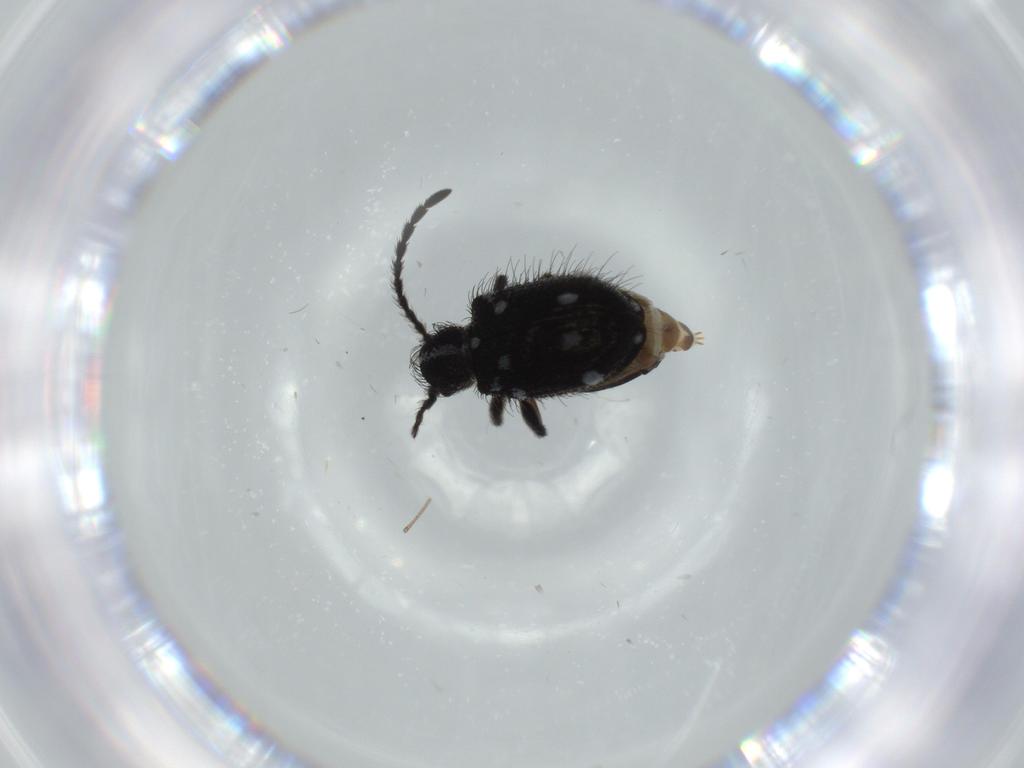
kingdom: Animalia
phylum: Arthropoda
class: Insecta
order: Coleoptera
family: Chrysomelidae
